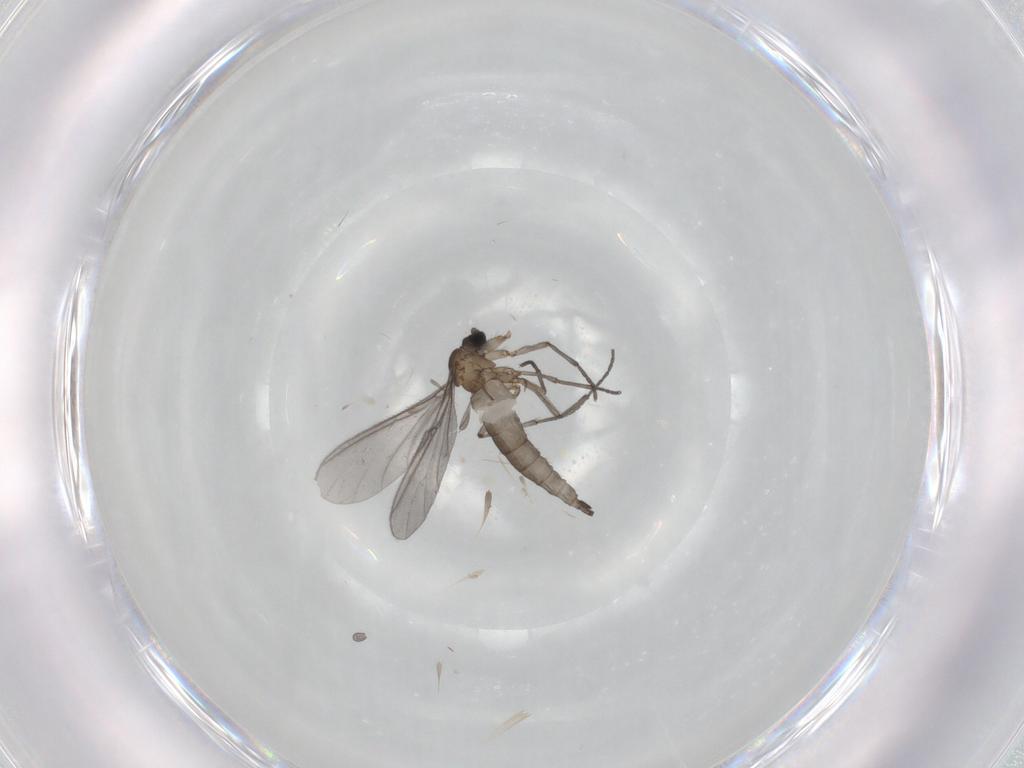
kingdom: Animalia
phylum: Arthropoda
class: Insecta
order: Diptera
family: Sciaridae
